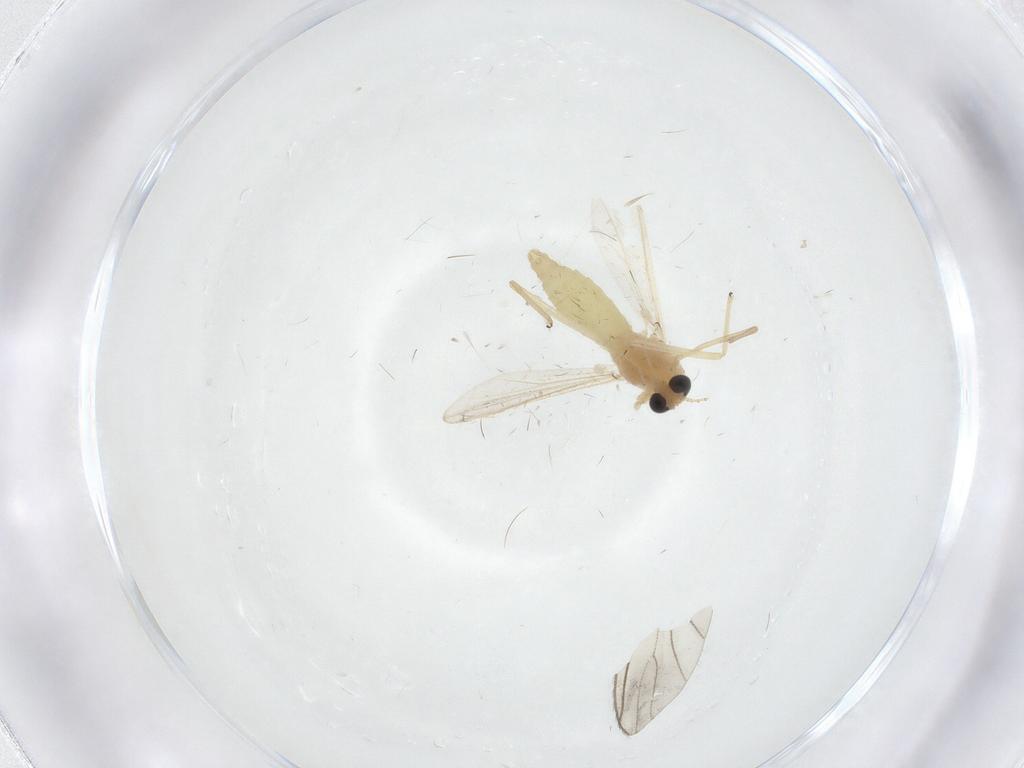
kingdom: Animalia
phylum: Arthropoda
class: Insecta
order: Diptera
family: Chironomidae
